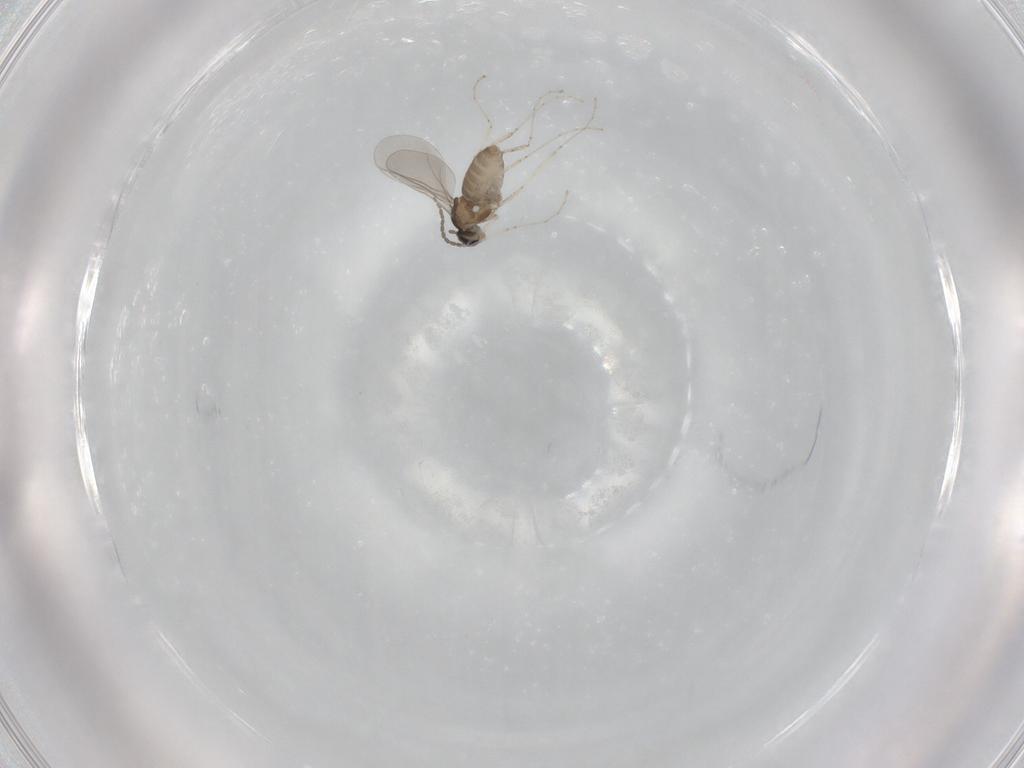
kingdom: Animalia
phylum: Arthropoda
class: Insecta
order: Diptera
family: Cecidomyiidae
